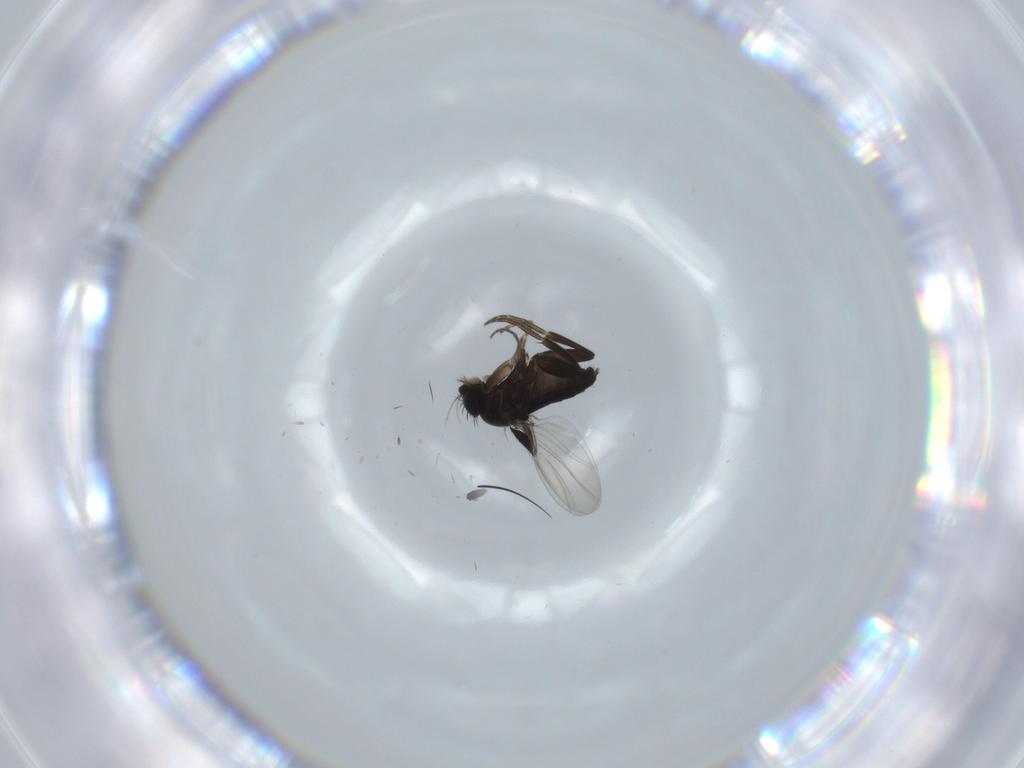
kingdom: Animalia
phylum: Arthropoda
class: Insecta
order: Diptera
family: Phoridae
